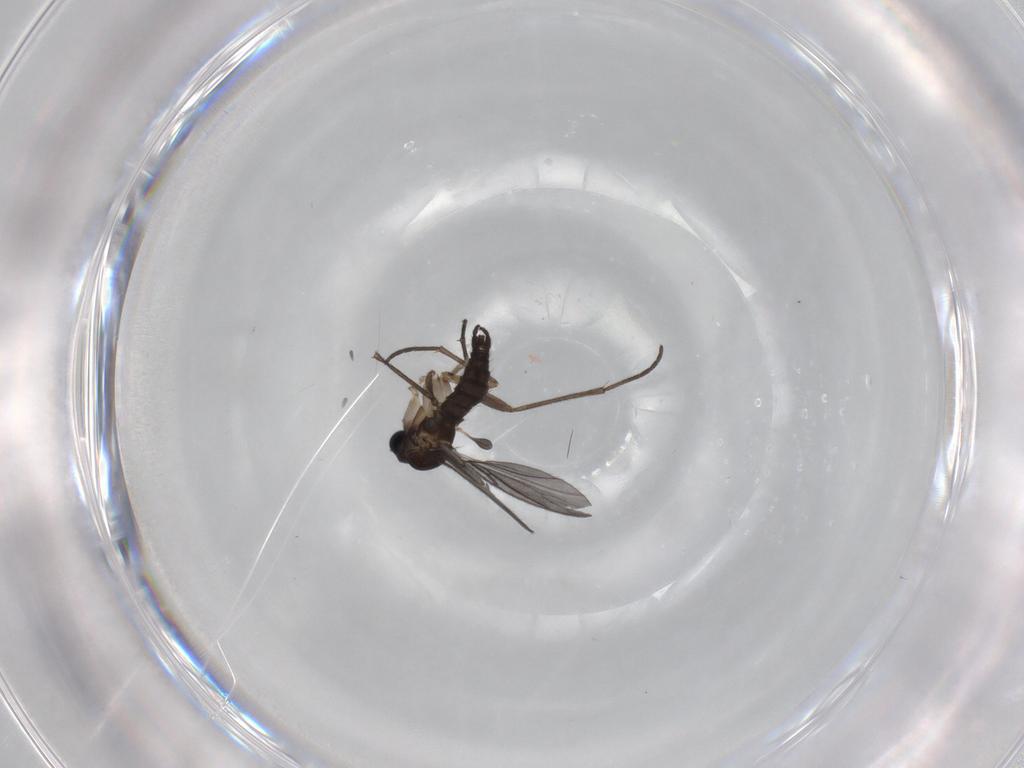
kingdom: Animalia
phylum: Arthropoda
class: Insecta
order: Diptera
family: Sciaridae
